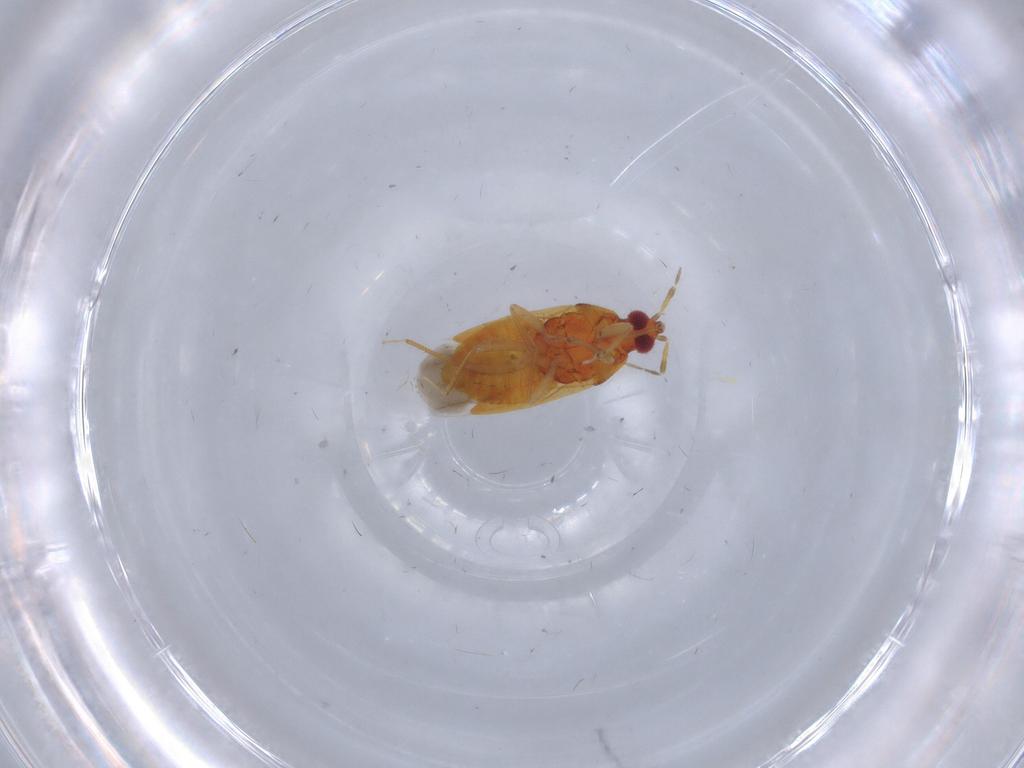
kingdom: Animalia
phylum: Arthropoda
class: Insecta
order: Hemiptera
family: Anthocoridae
